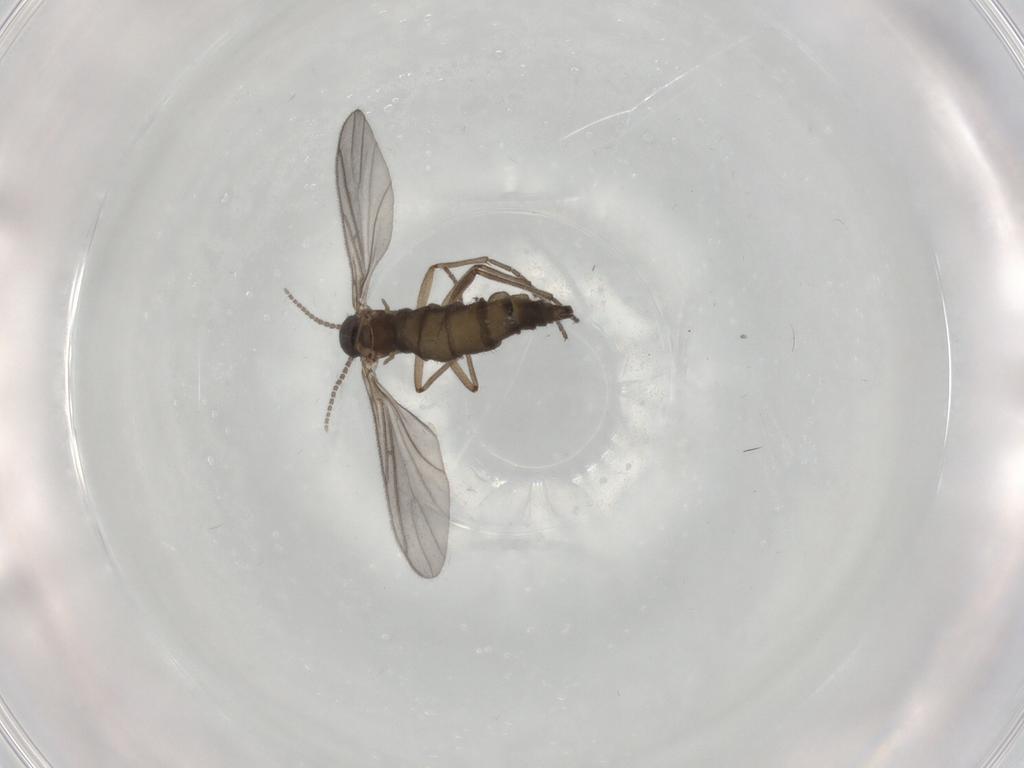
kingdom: Animalia
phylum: Arthropoda
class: Insecta
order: Diptera
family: Sciaridae
